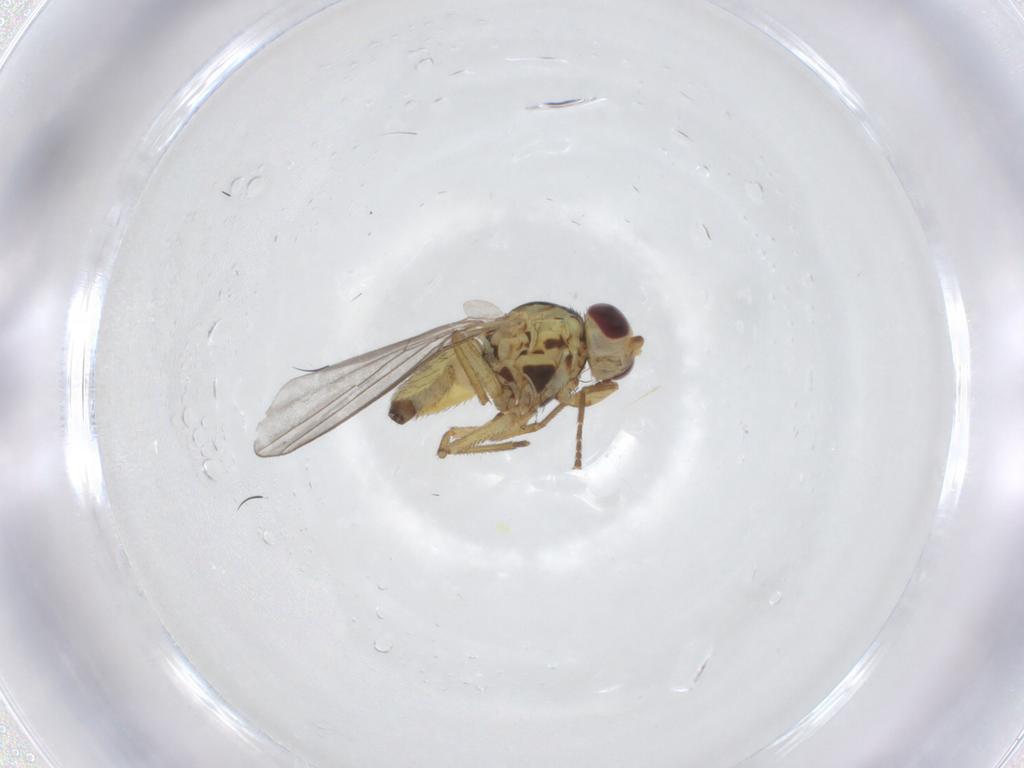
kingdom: Animalia
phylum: Arthropoda
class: Insecta
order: Diptera
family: Agromyzidae
